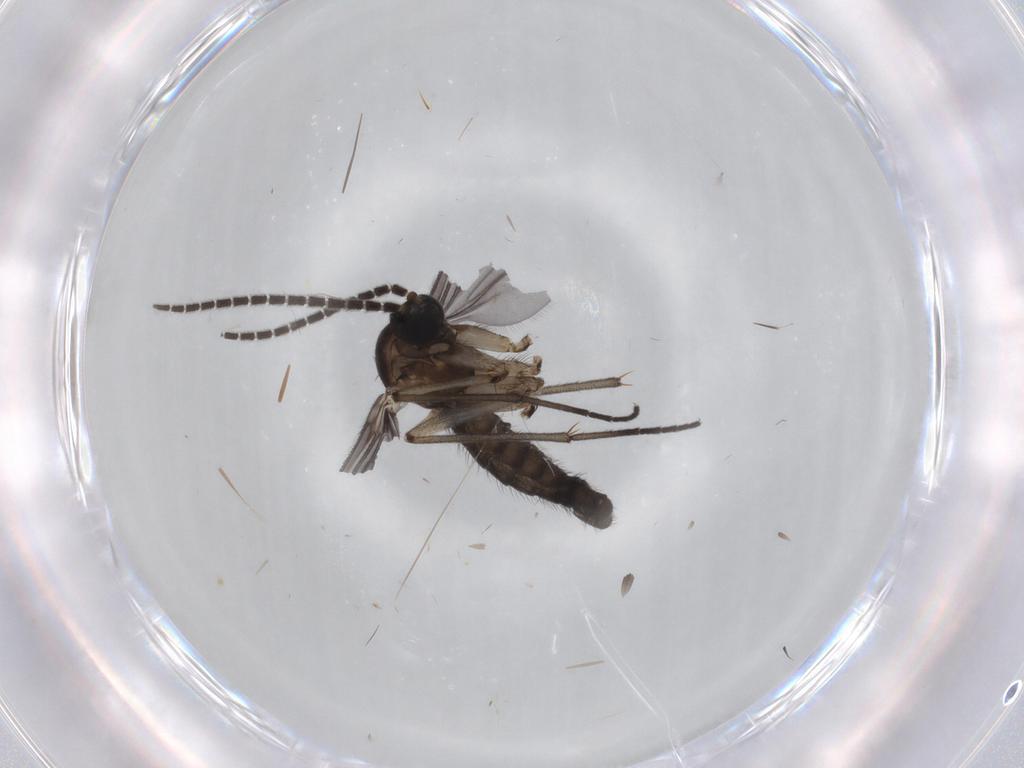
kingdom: Animalia
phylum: Arthropoda
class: Insecta
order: Diptera
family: Sciaridae
